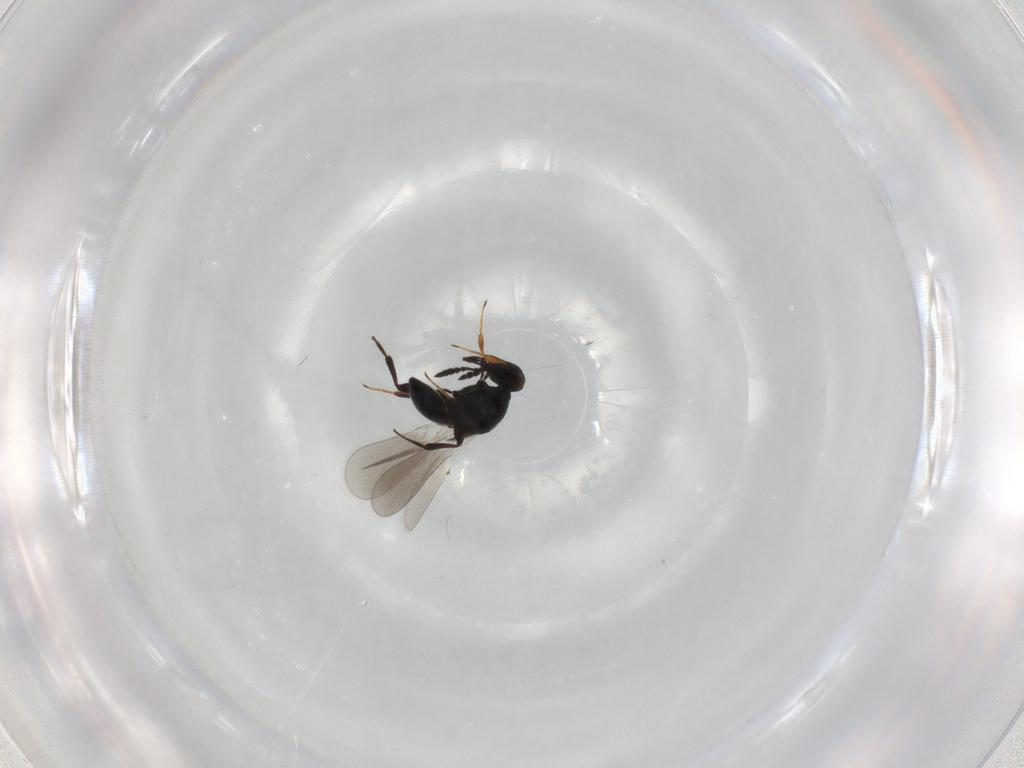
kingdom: Animalia
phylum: Arthropoda
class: Insecta
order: Hymenoptera
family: Platygastridae
